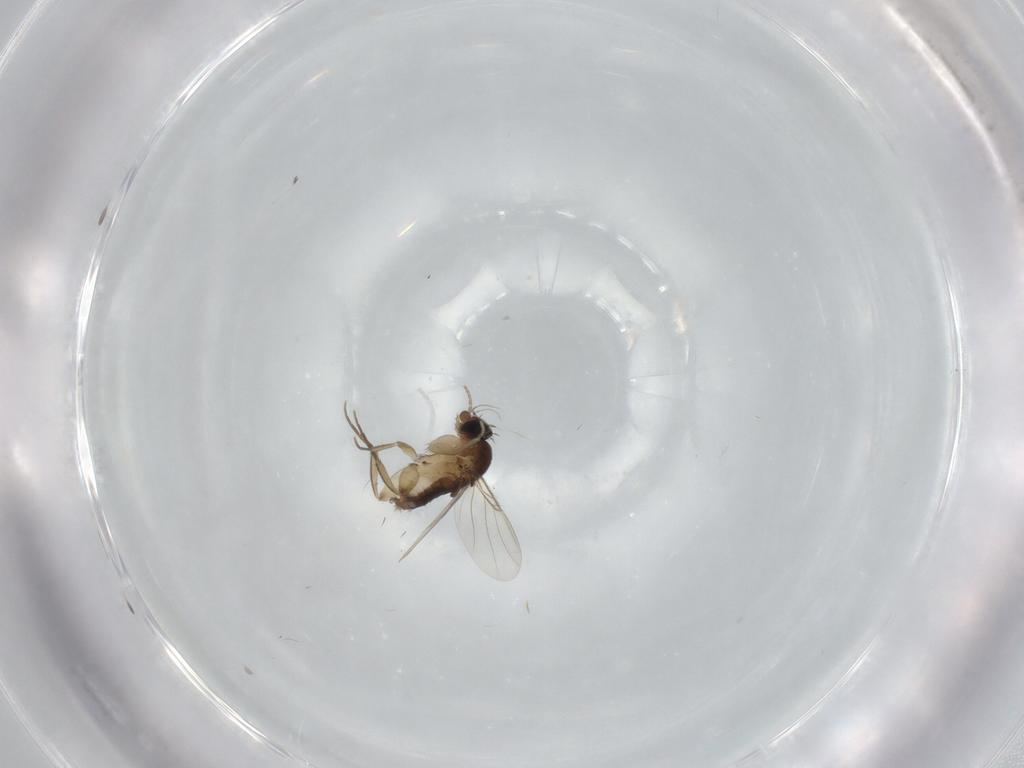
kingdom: Animalia
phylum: Arthropoda
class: Insecta
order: Diptera
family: Phoridae
